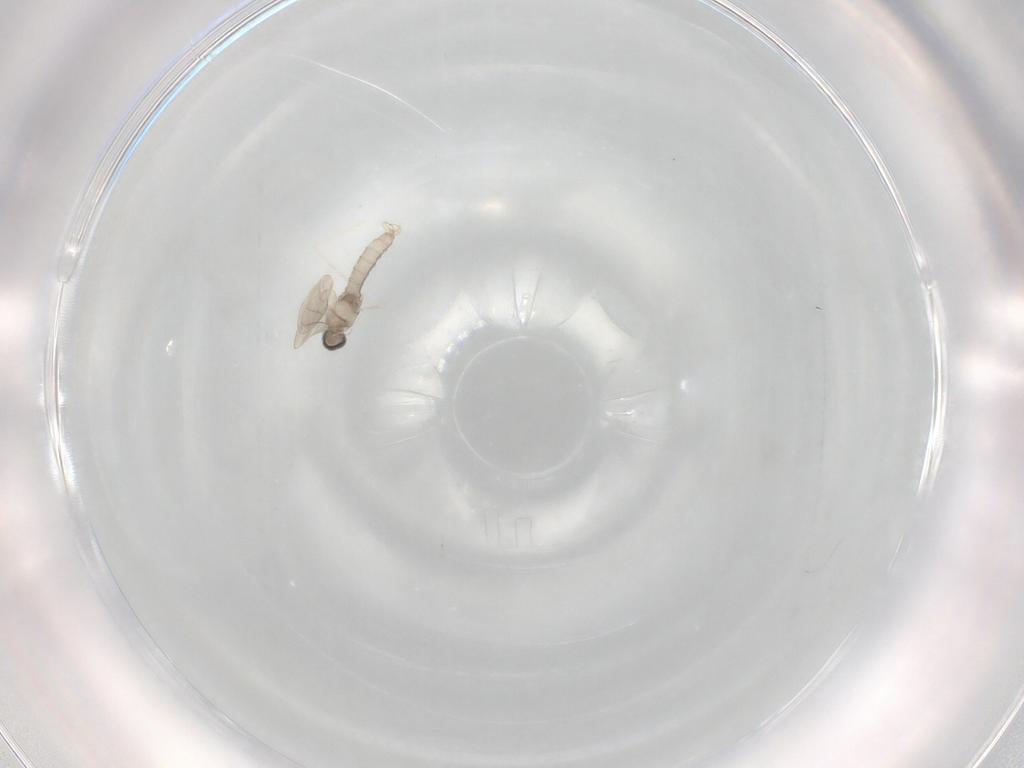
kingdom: Animalia
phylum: Arthropoda
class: Insecta
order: Diptera
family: Cecidomyiidae
